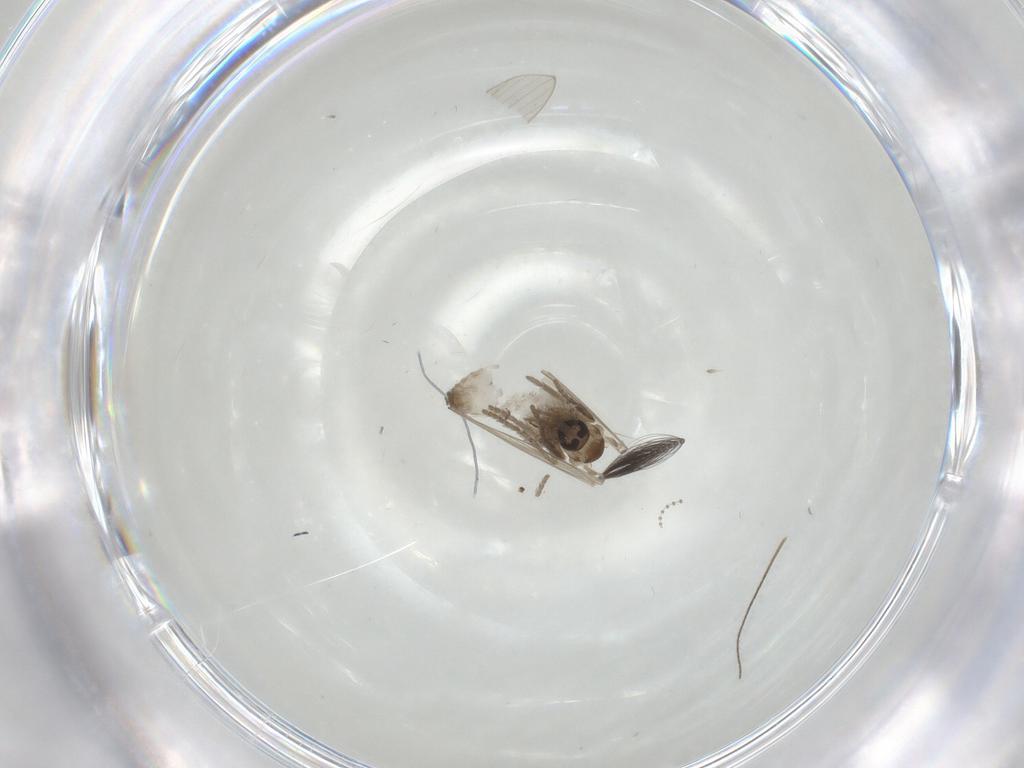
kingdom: Animalia
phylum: Arthropoda
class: Insecta
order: Diptera
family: Ceratopogonidae
